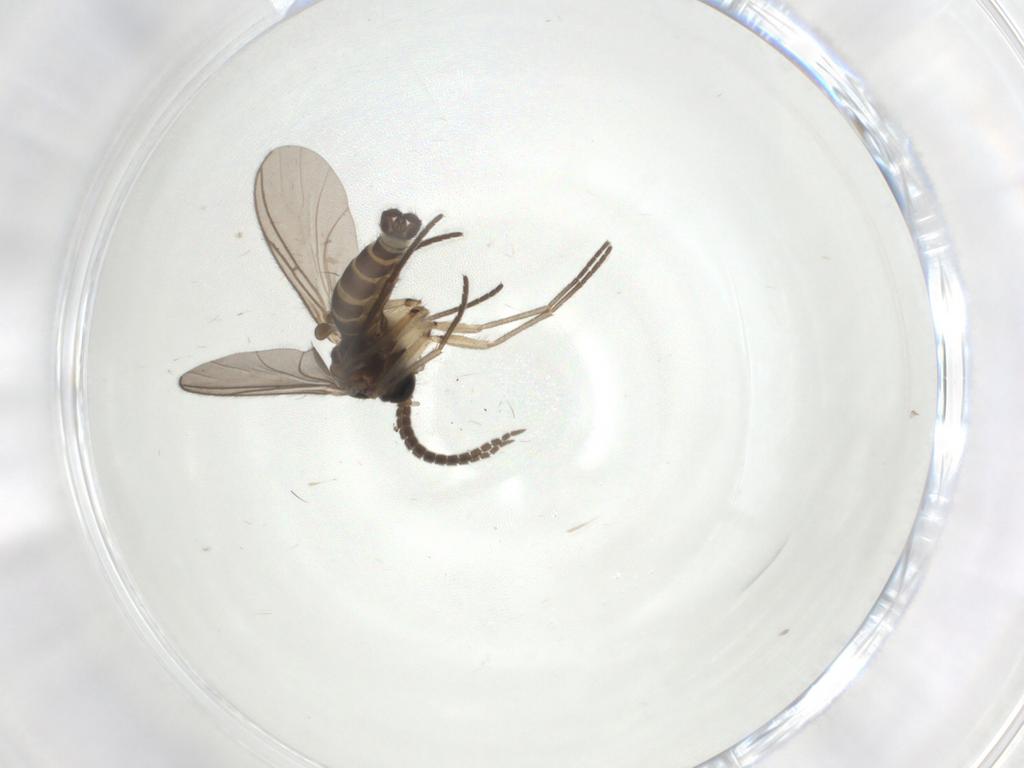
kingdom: Animalia
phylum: Arthropoda
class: Insecta
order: Diptera
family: Sciaridae
